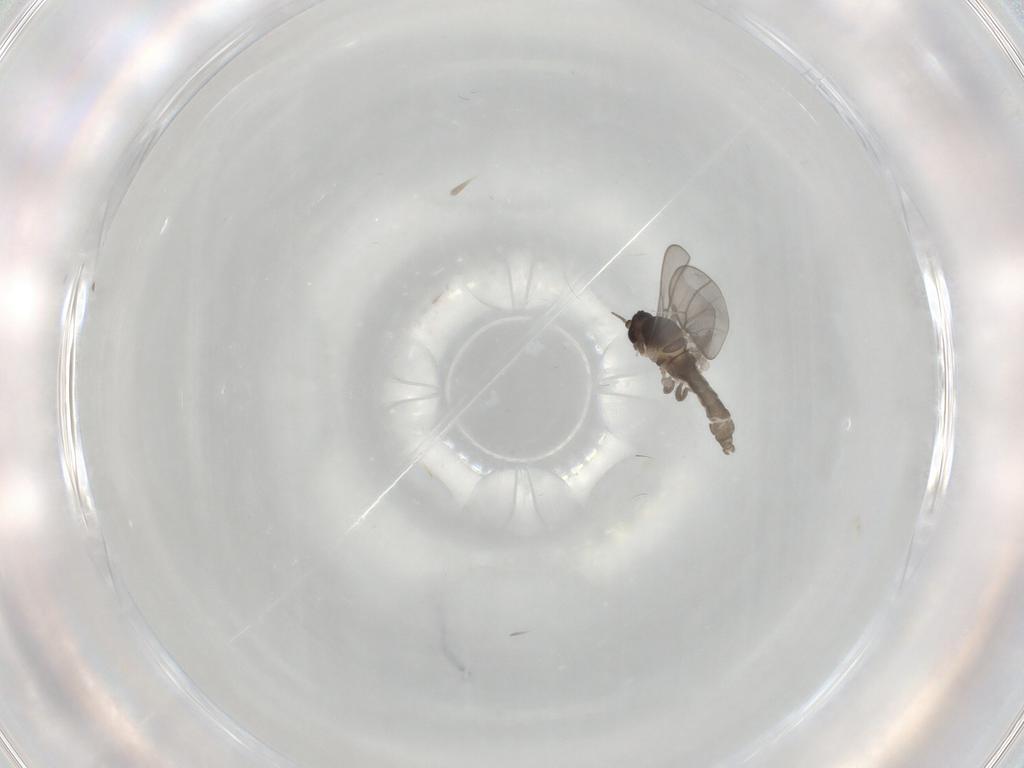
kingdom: Animalia
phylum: Arthropoda
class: Insecta
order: Diptera
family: Cecidomyiidae
